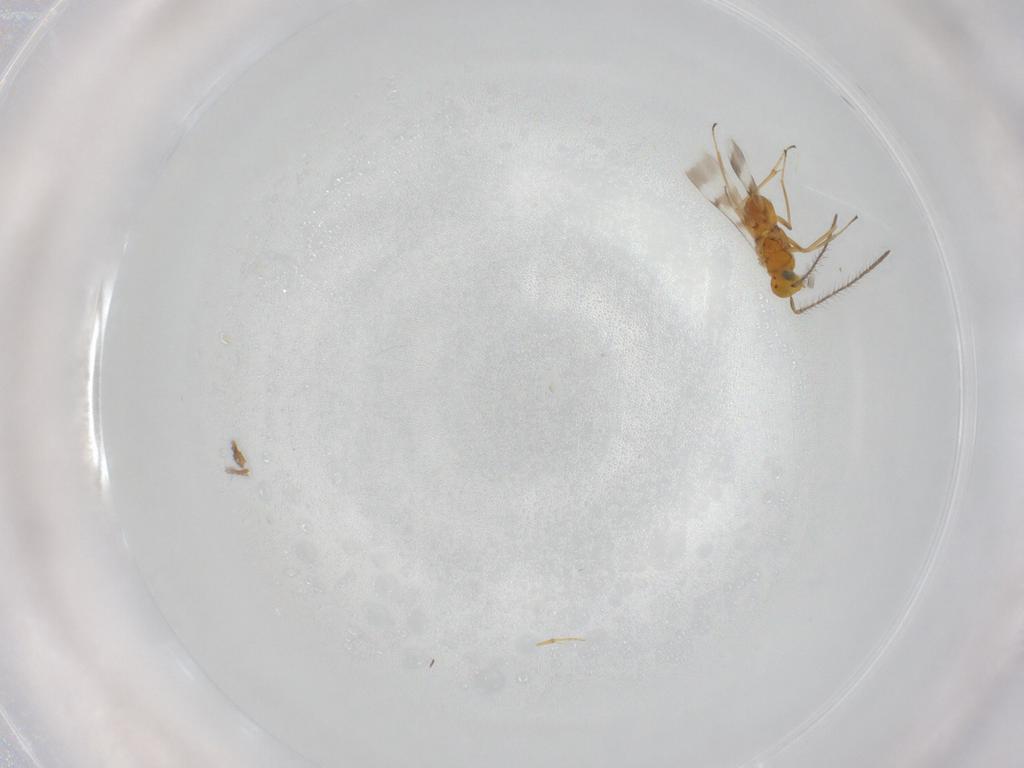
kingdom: Animalia
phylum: Arthropoda
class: Insecta
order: Hymenoptera
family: Encyrtidae
